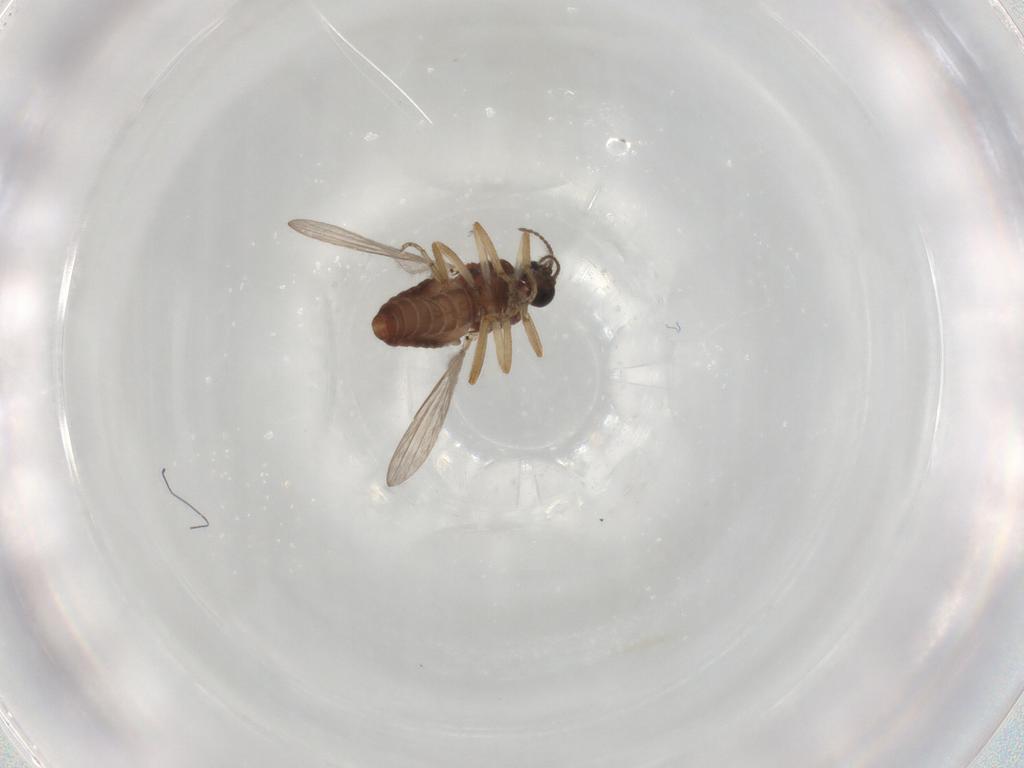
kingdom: Animalia
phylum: Arthropoda
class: Insecta
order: Diptera
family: Ceratopogonidae
